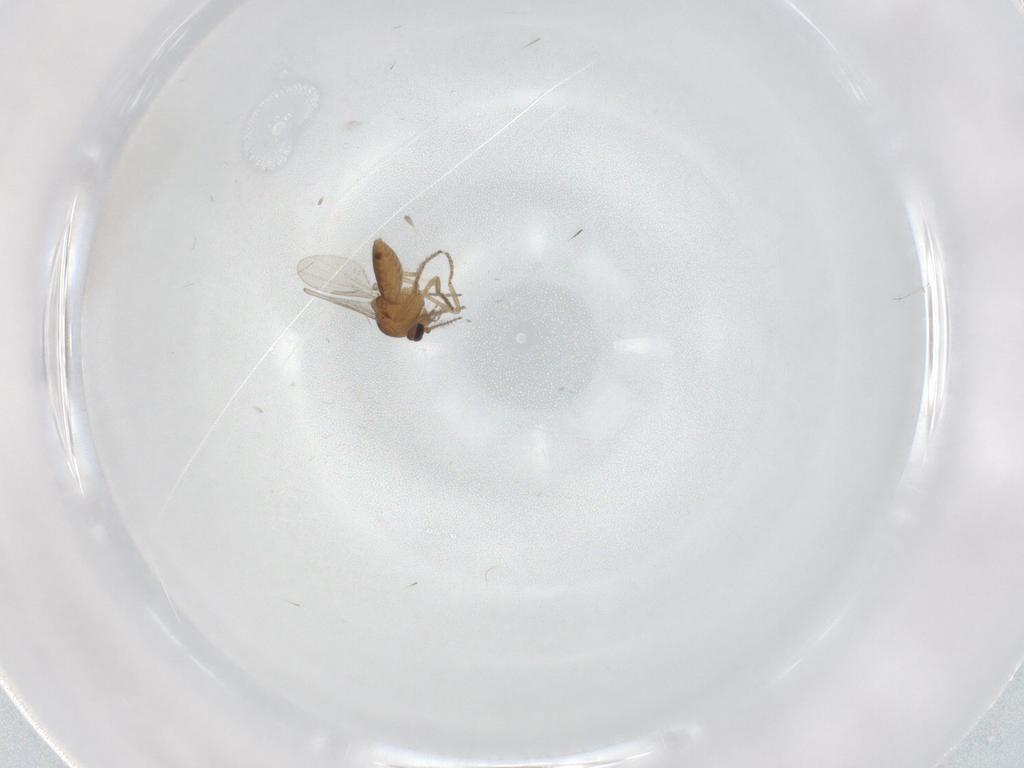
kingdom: Animalia
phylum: Arthropoda
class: Insecta
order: Diptera
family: Ceratopogonidae
